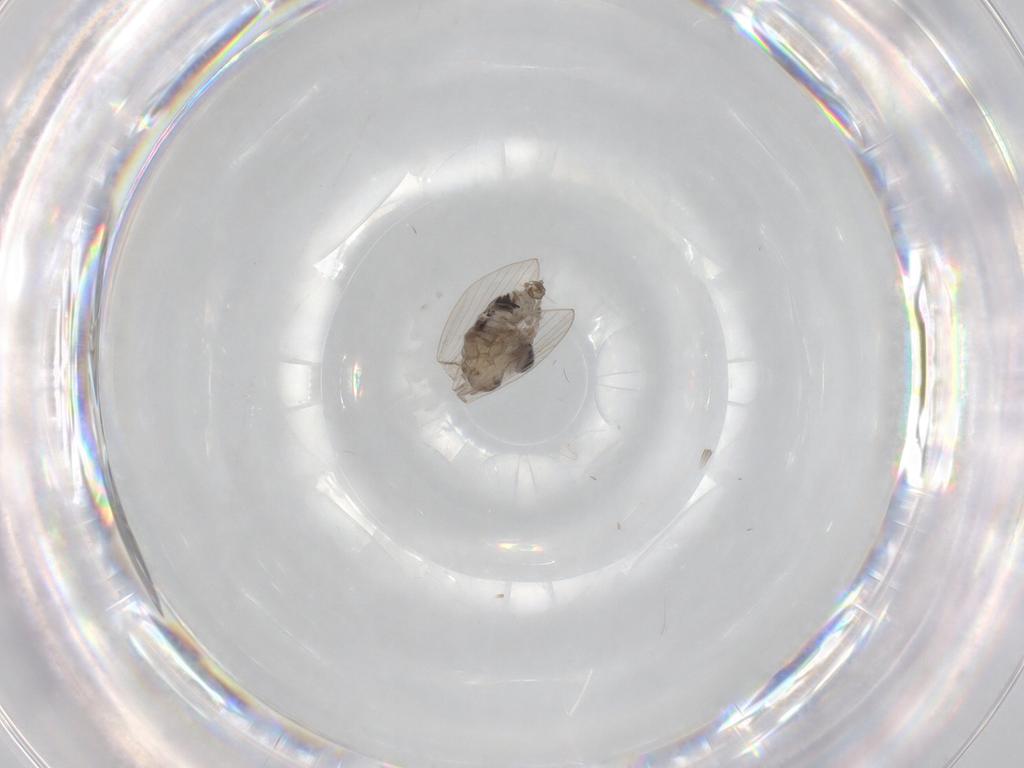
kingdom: Animalia
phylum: Arthropoda
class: Insecta
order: Diptera
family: Psychodidae
